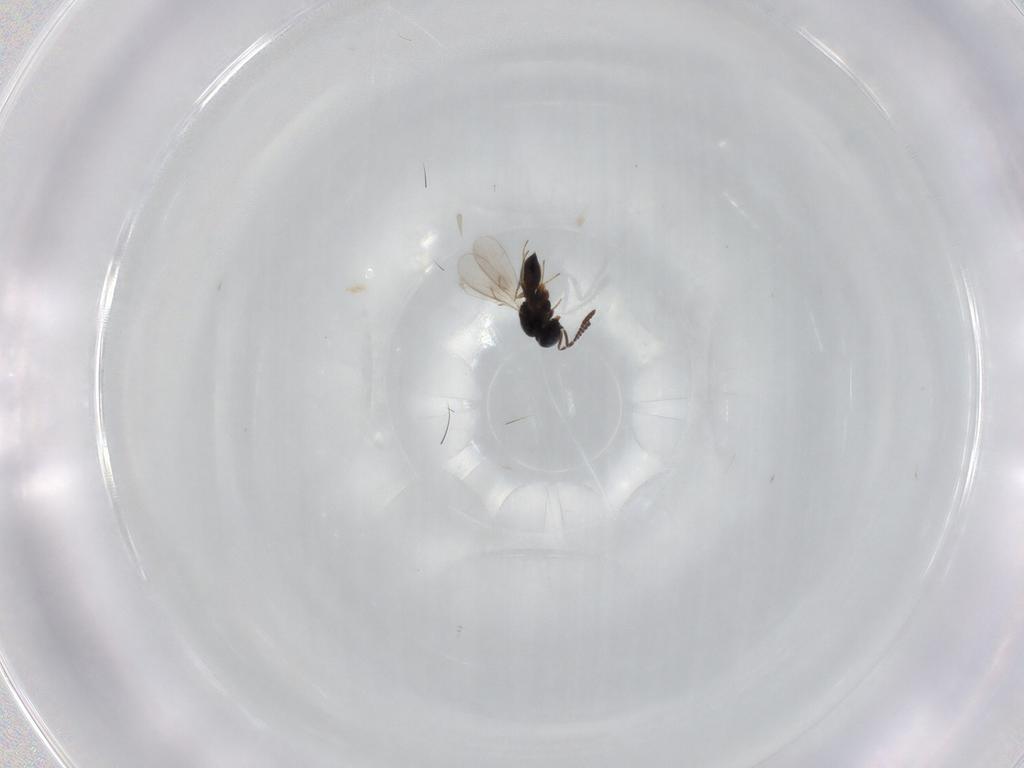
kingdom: Animalia
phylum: Arthropoda
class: Insecta
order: Hymenoptera
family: Scelionidae
